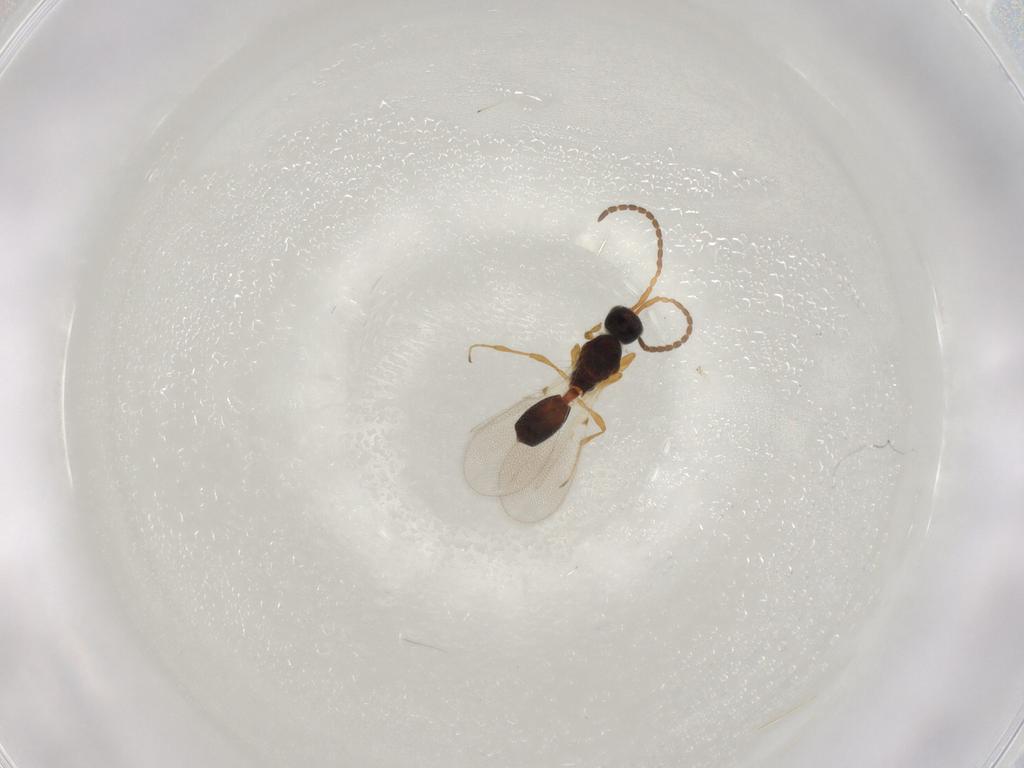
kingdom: Animalia
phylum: Arthropoda
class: Insecta
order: Hymenoptera
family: Diapriidae
